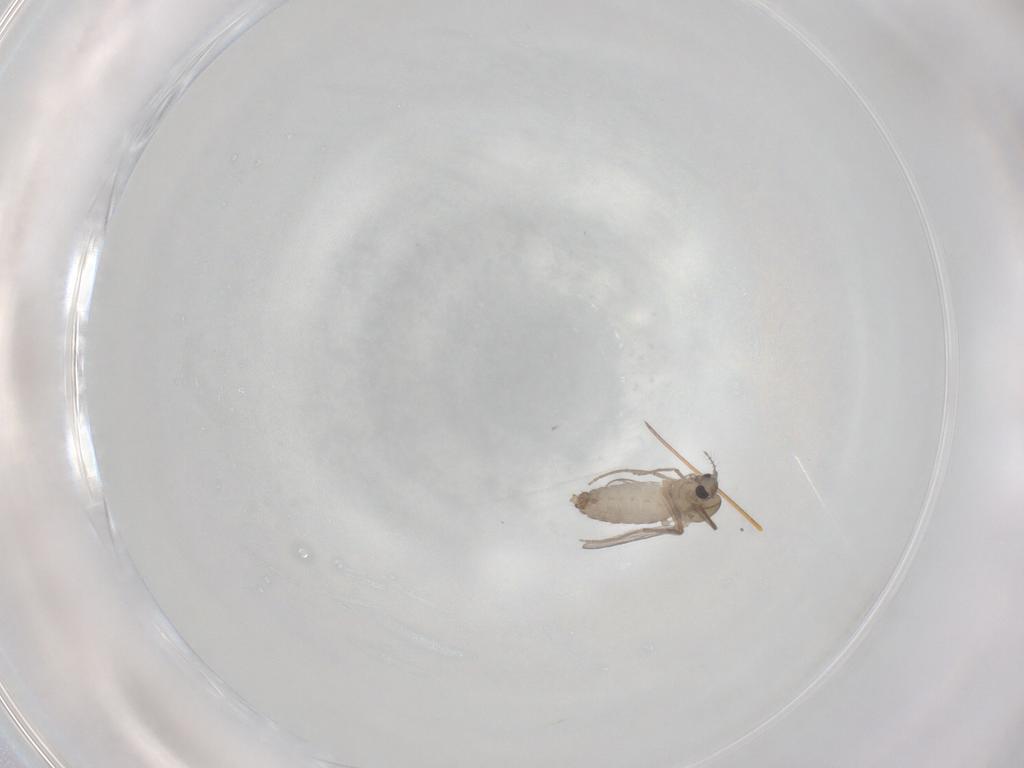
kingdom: Animalia
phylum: Arthropoda
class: Insecta
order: Diptera
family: Chironomidae
